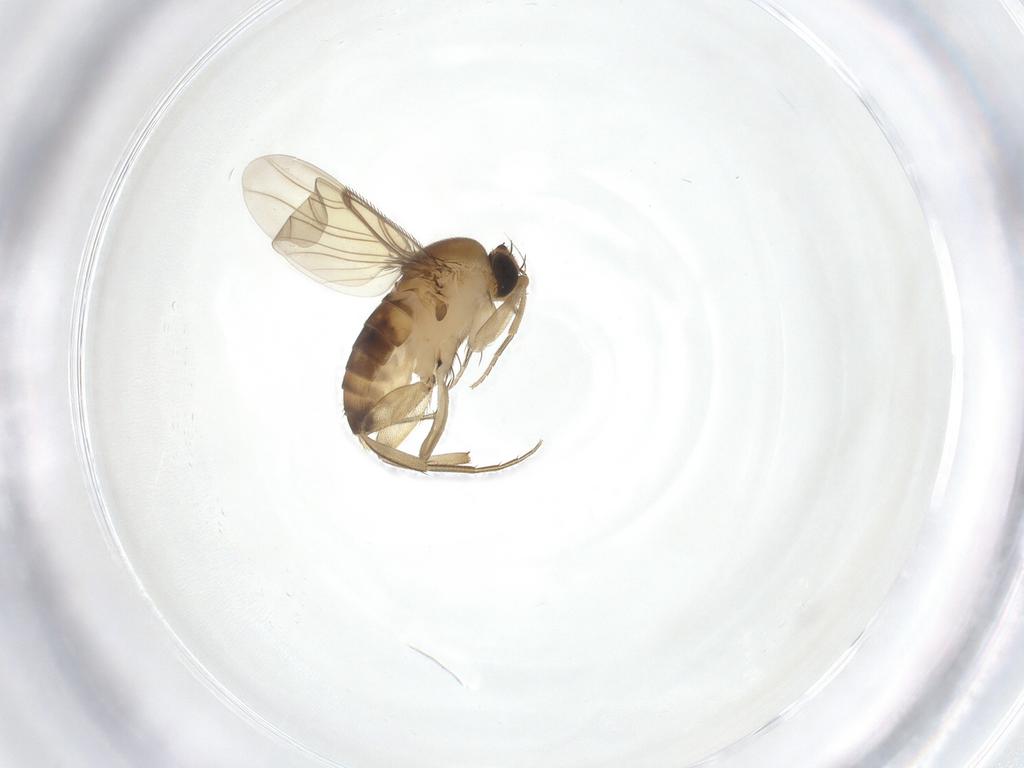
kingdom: Animalia
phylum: Arthropoda
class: Insecta
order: Diptera
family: Phoridae
